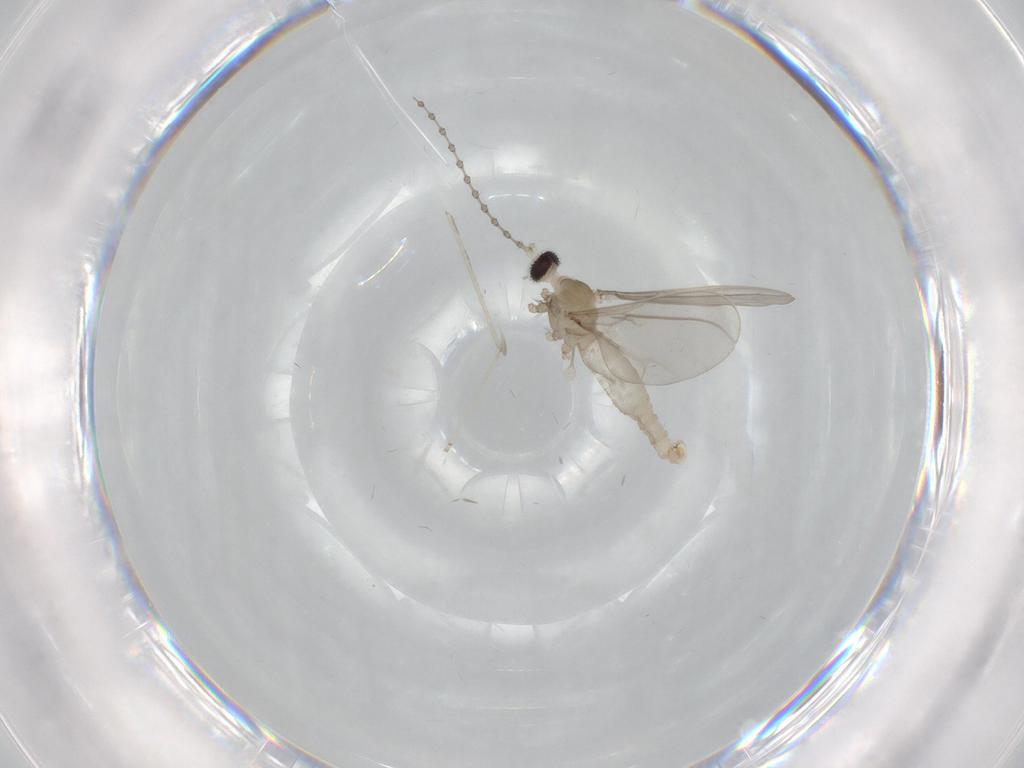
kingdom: Animalia
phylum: Arthropoda
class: Insecta
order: Diptera
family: Cecidomyiidae
